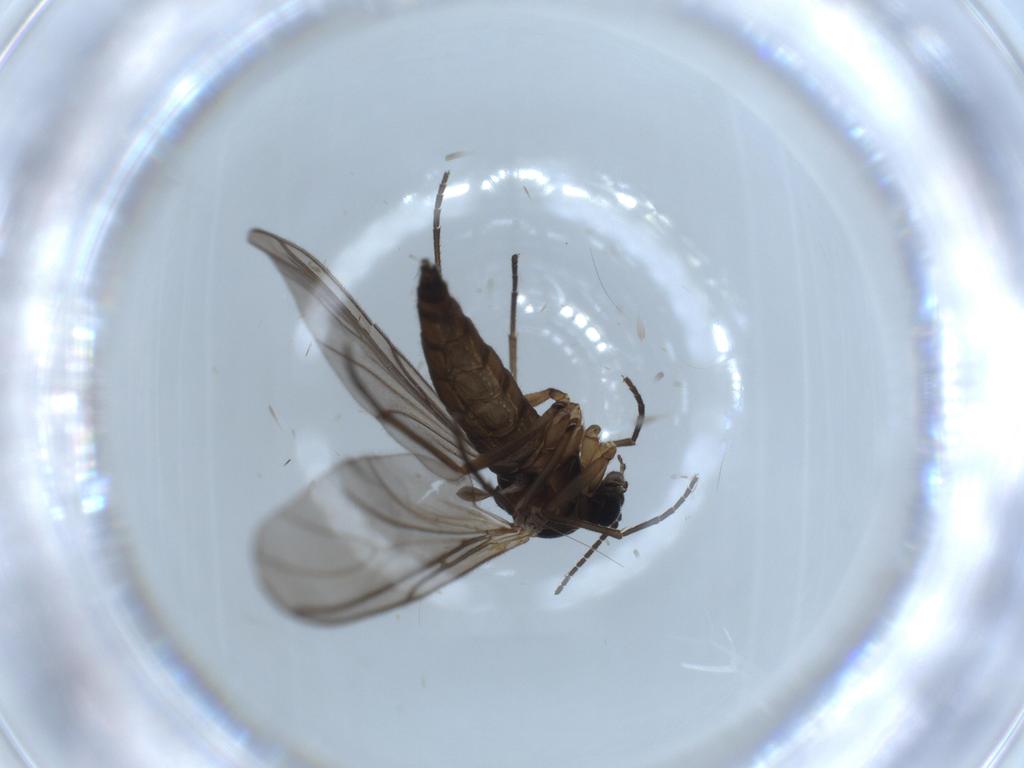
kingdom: Animalia
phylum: Arthropoda
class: Insecta
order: Diptera
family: Sciaridae
